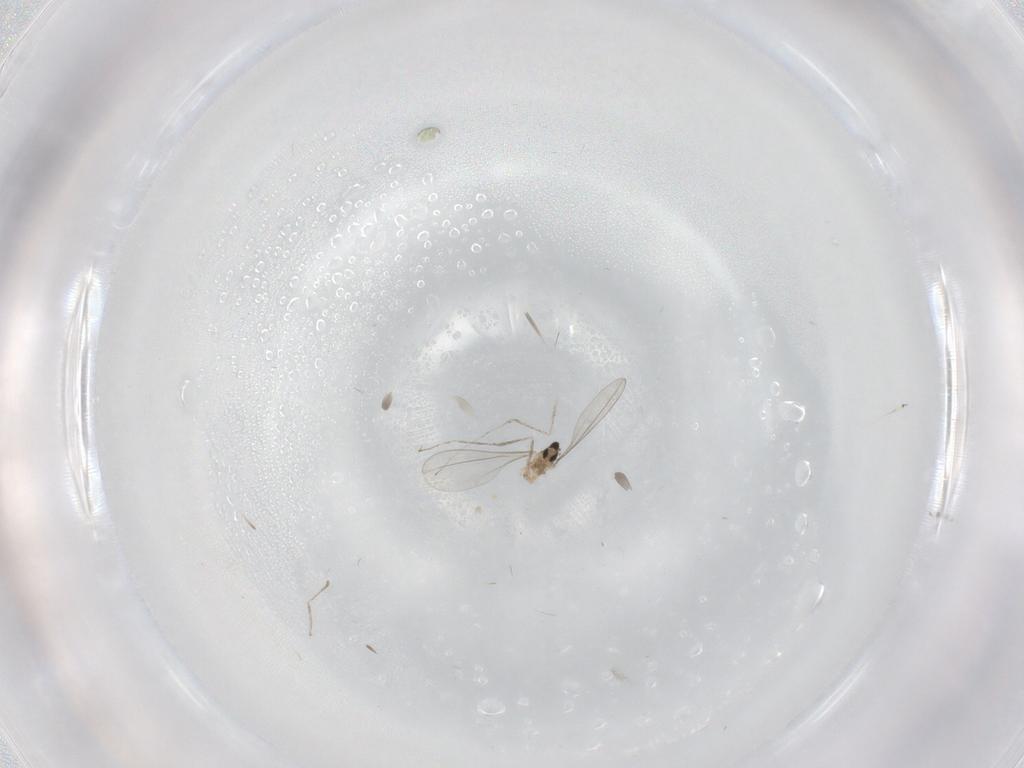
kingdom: Animalia
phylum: Arthropoda
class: Insecta
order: Diptera
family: Cecidomyiidae
